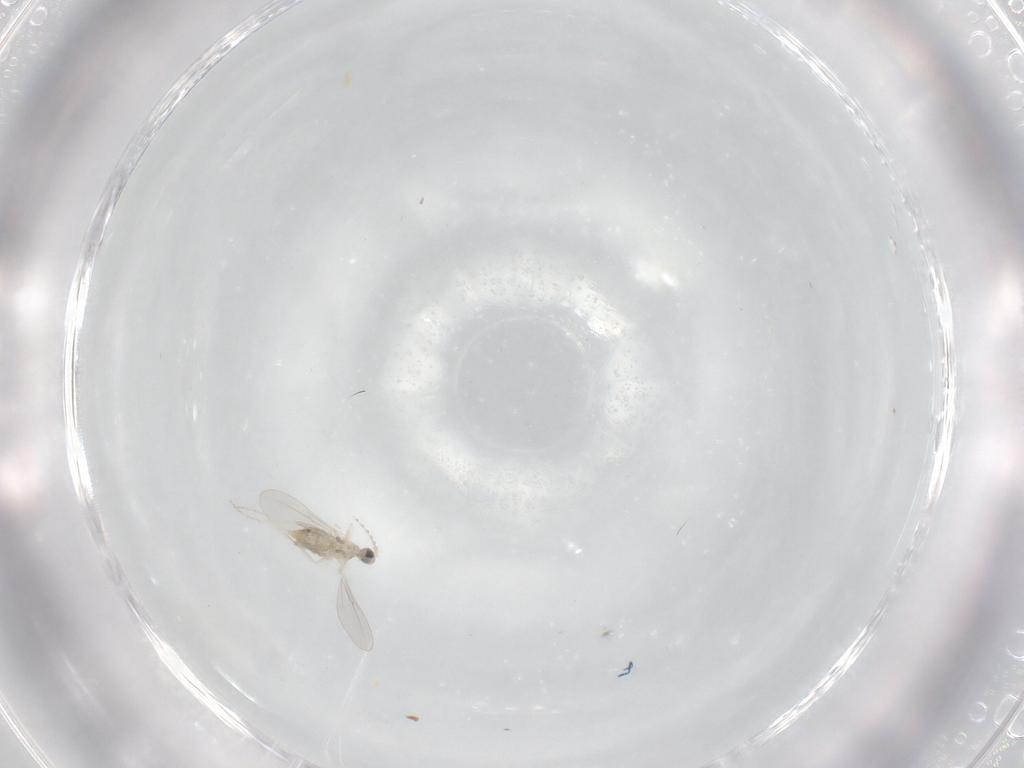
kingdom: Animalia
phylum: Arthropoda
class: Insecta
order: Diptera
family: Cecidomyiidae
